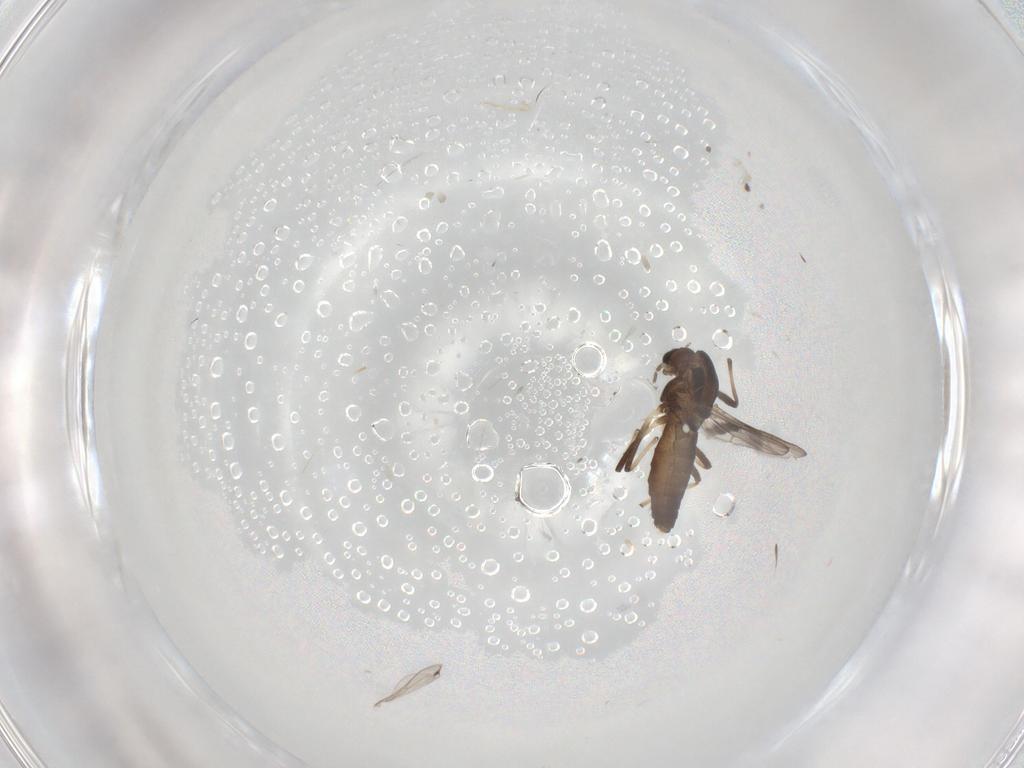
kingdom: Animalia
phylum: Arthropoda
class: Insecta
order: Diptera
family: Chironomidae
